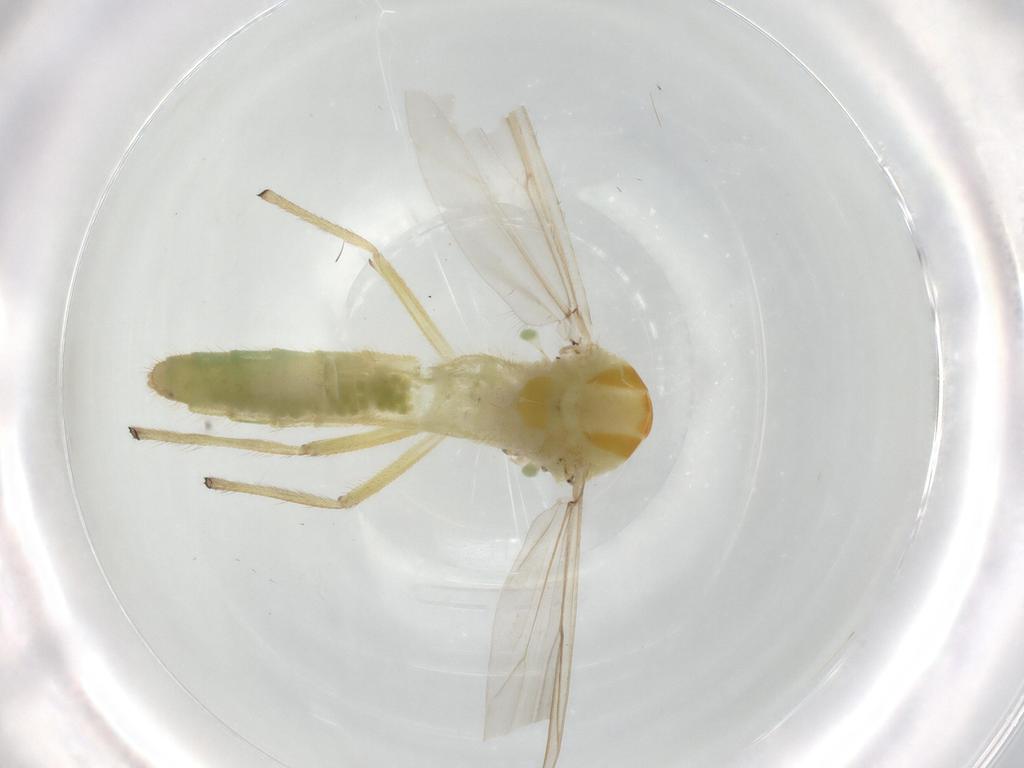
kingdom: Animalia
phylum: Arthropoda
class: Insecta
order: Diptera
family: Chironomidae
